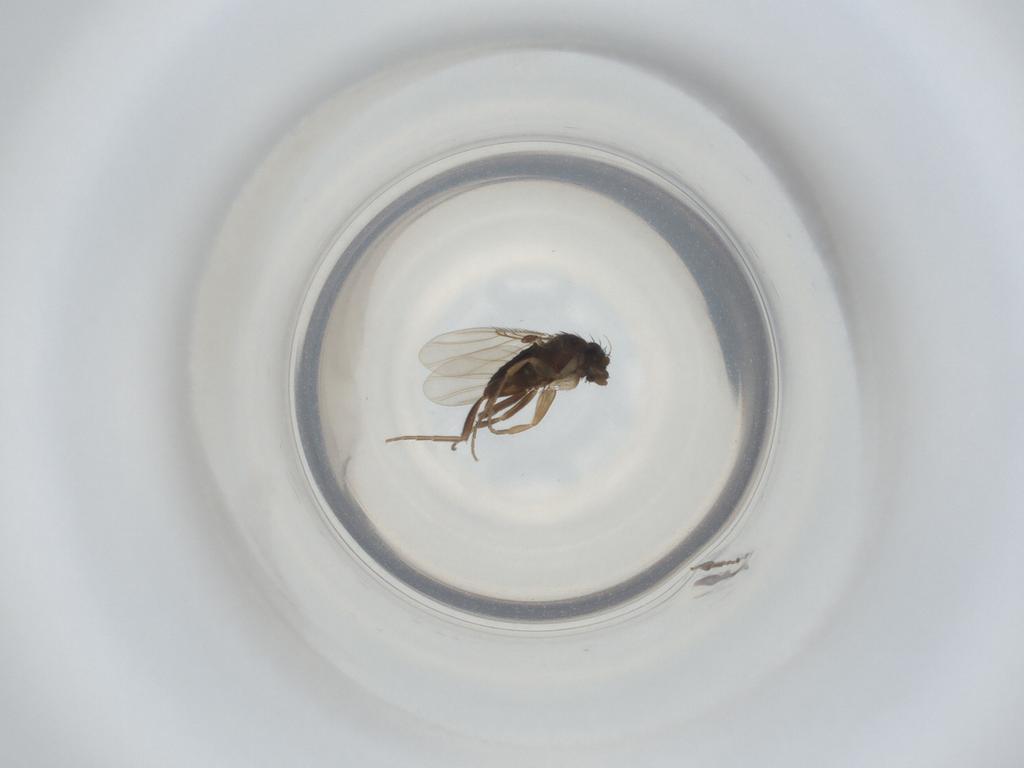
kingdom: Animalia
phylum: Arthropoda
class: Insecta
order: Diptera
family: Phoridae
